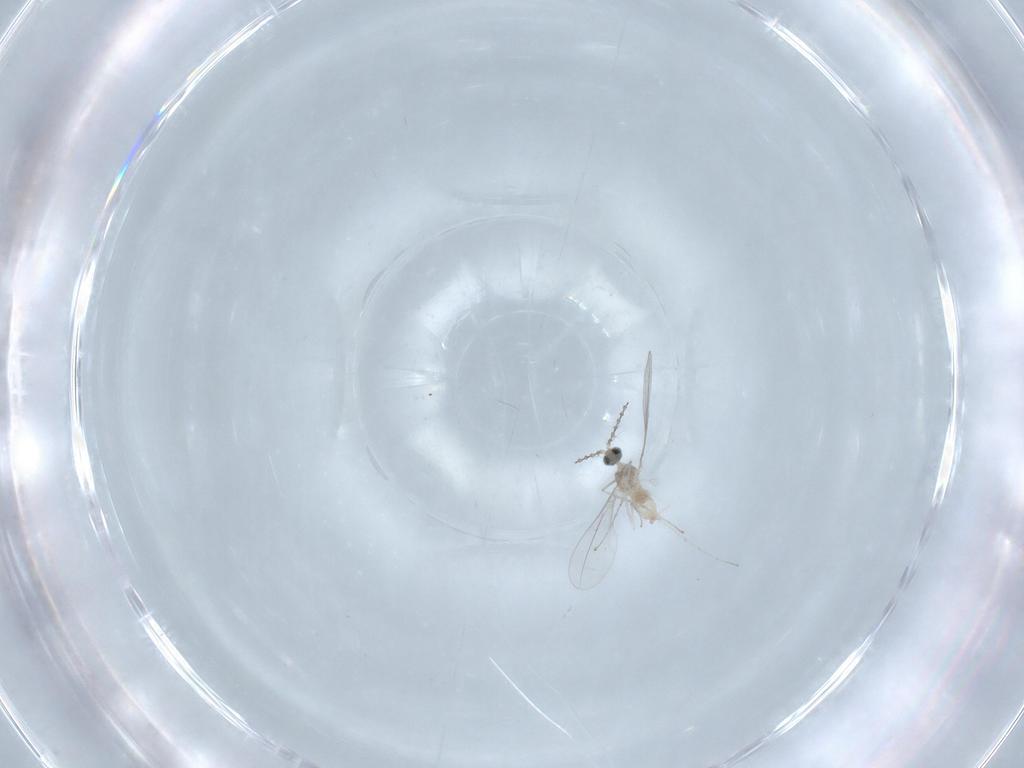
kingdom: Animalia
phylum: Arthropoda
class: Insecta
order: Diptera
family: Cecidomyiidae
